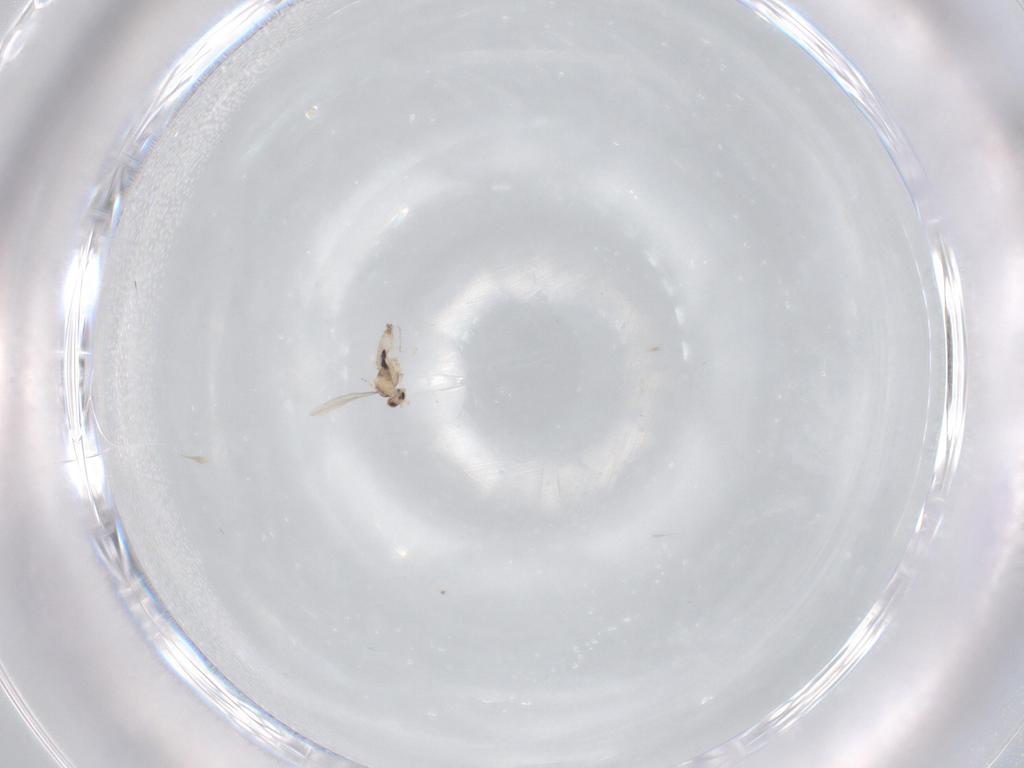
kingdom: Animalia
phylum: Arthropoda
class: Insecta
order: Diptera
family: Cecidomyiidae
